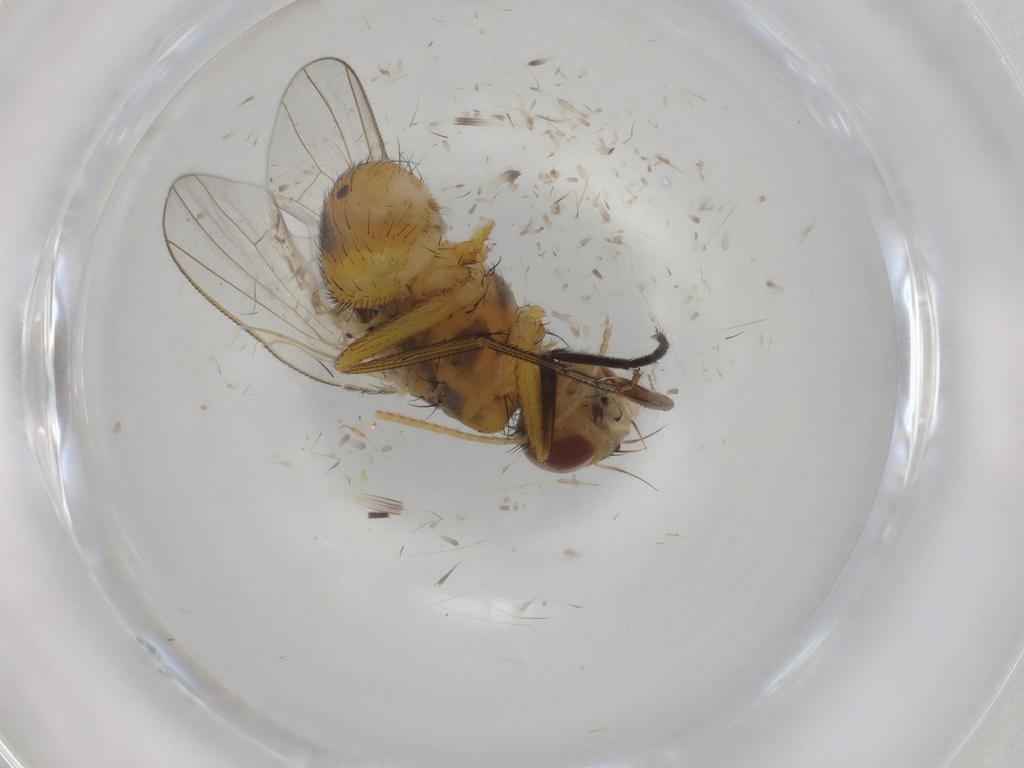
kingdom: Animalia
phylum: Arthropoda
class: Insecta
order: Diptera
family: Muscidae
